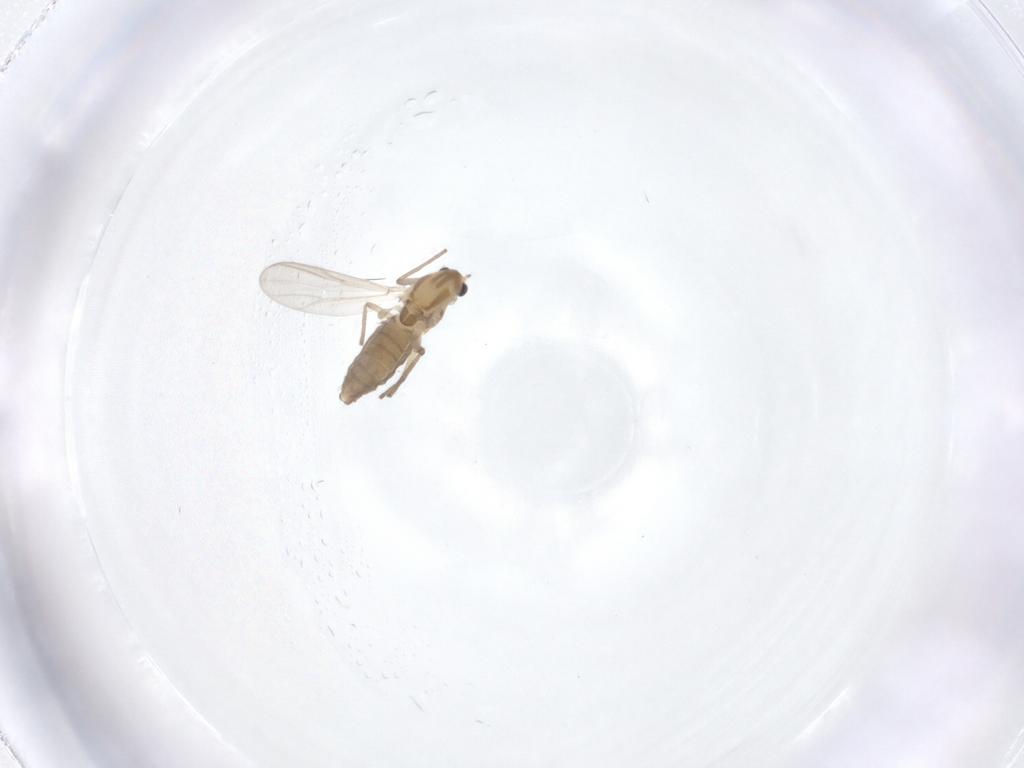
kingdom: Animalia
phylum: Arthropoda
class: Insecta
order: Diptera
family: Chironomidae
